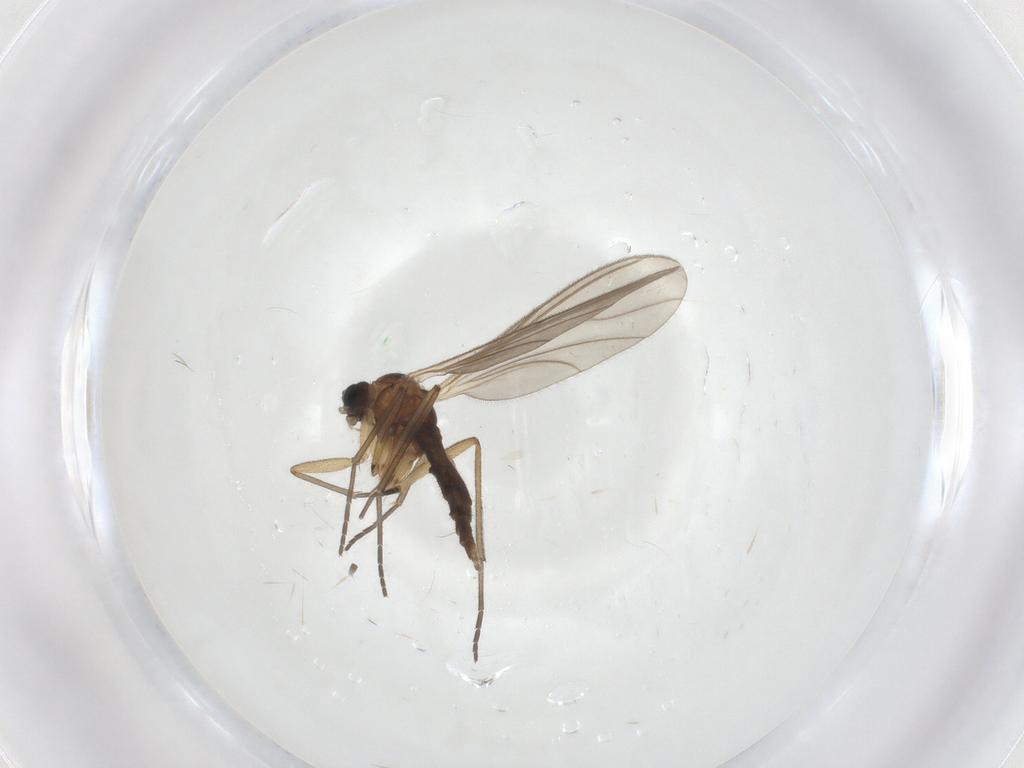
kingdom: Animalia
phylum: Arthropoda
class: Insecta
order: Diptera
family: Sciaridae
